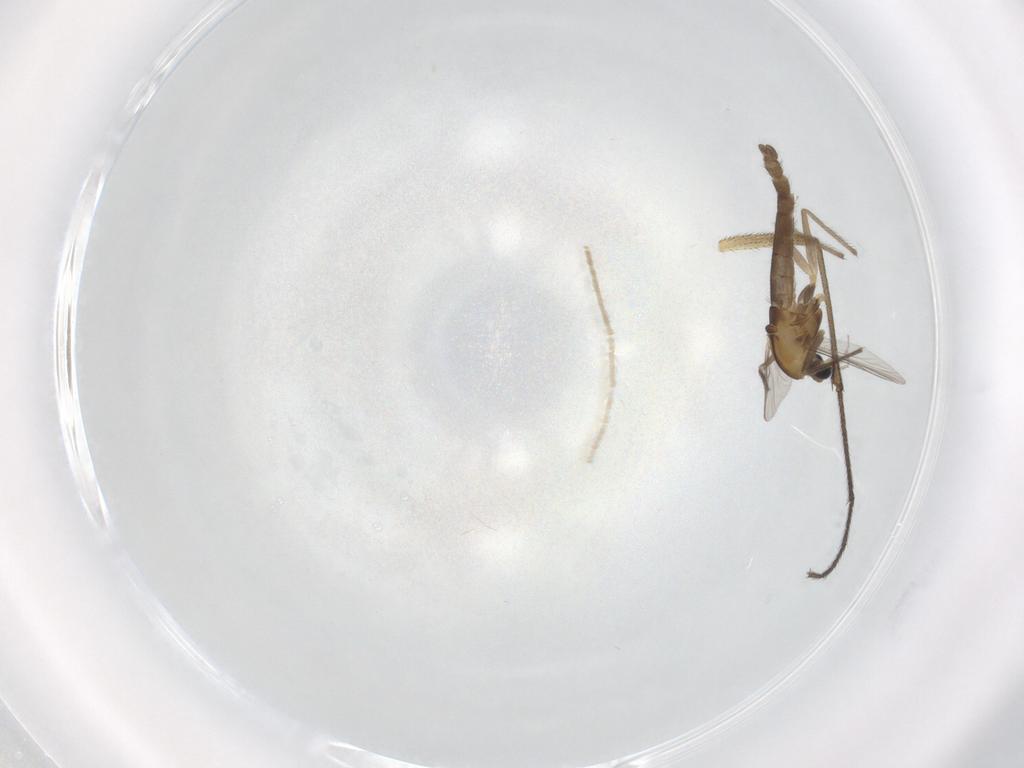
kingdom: Animalia
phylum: Arthropoda
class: Insecta
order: Diptera
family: Chironomidae
